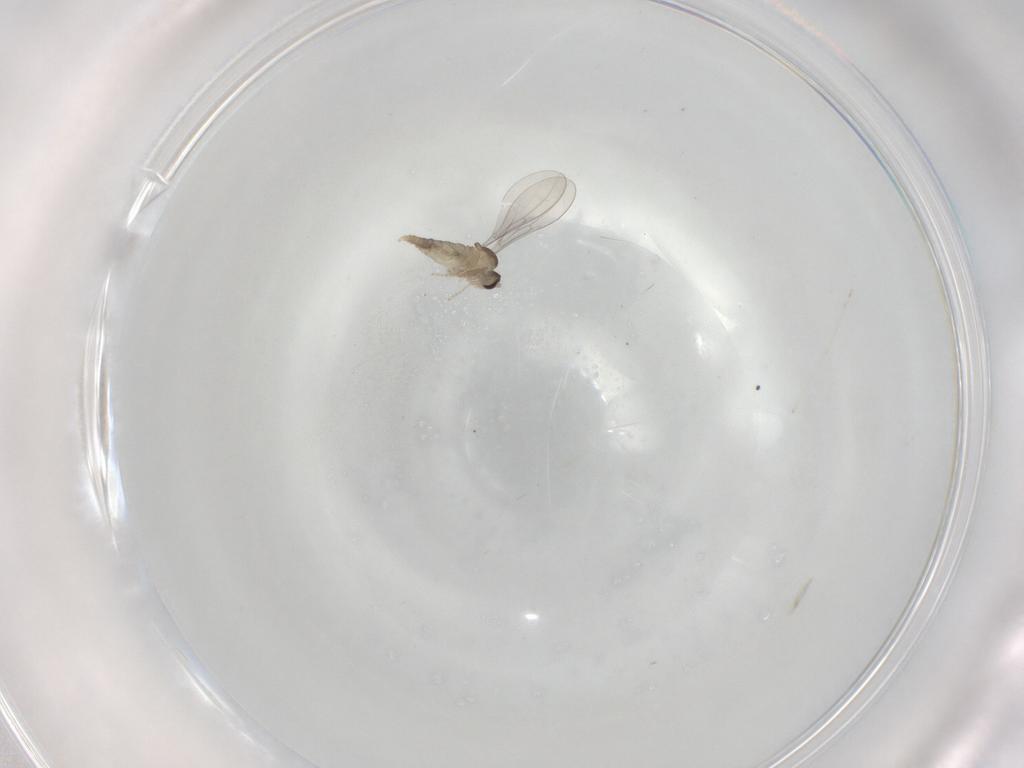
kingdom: Animalia
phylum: Arthropoda
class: Insecta
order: Diptera
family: Cecidomyiidae
